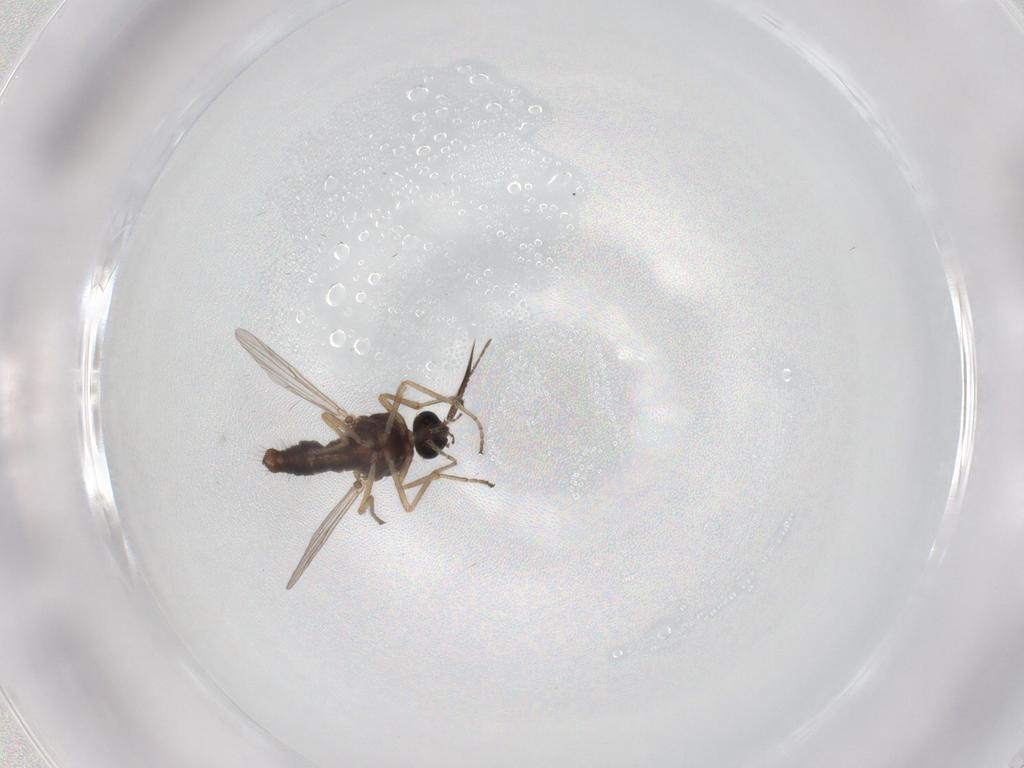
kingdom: Animalia
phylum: Arthropoda
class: Insecta
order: Diptera
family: Ceratopogonidae
